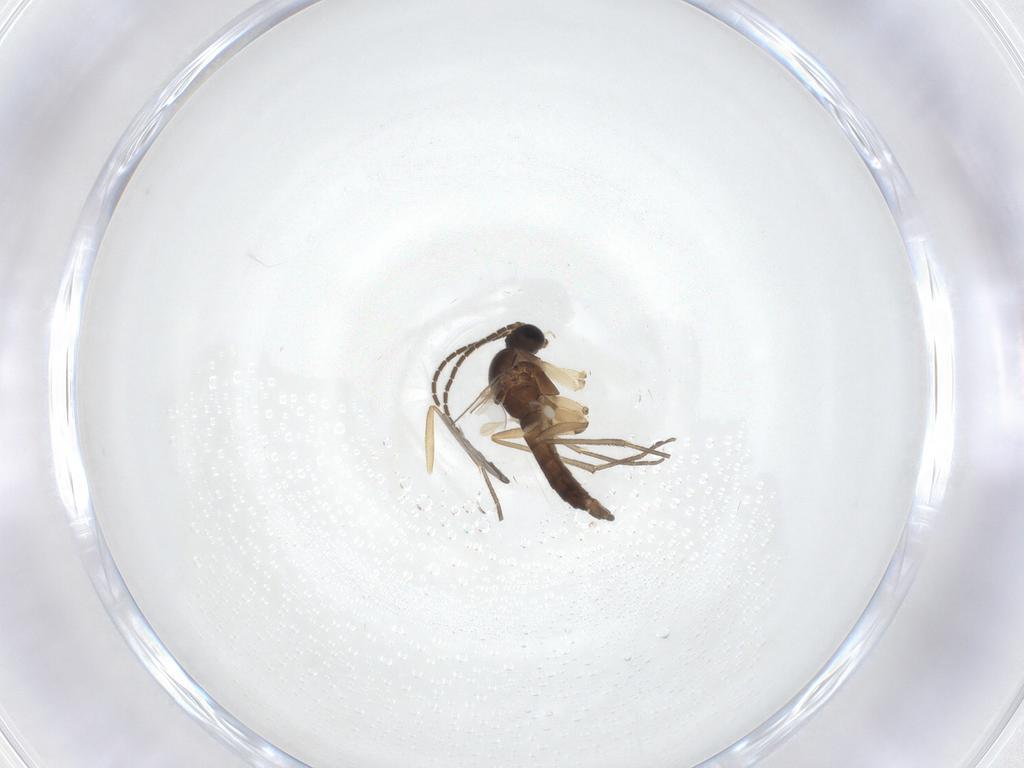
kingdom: Animalia
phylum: Arthropoda
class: Insecta
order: Diptera
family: Sciaridae
